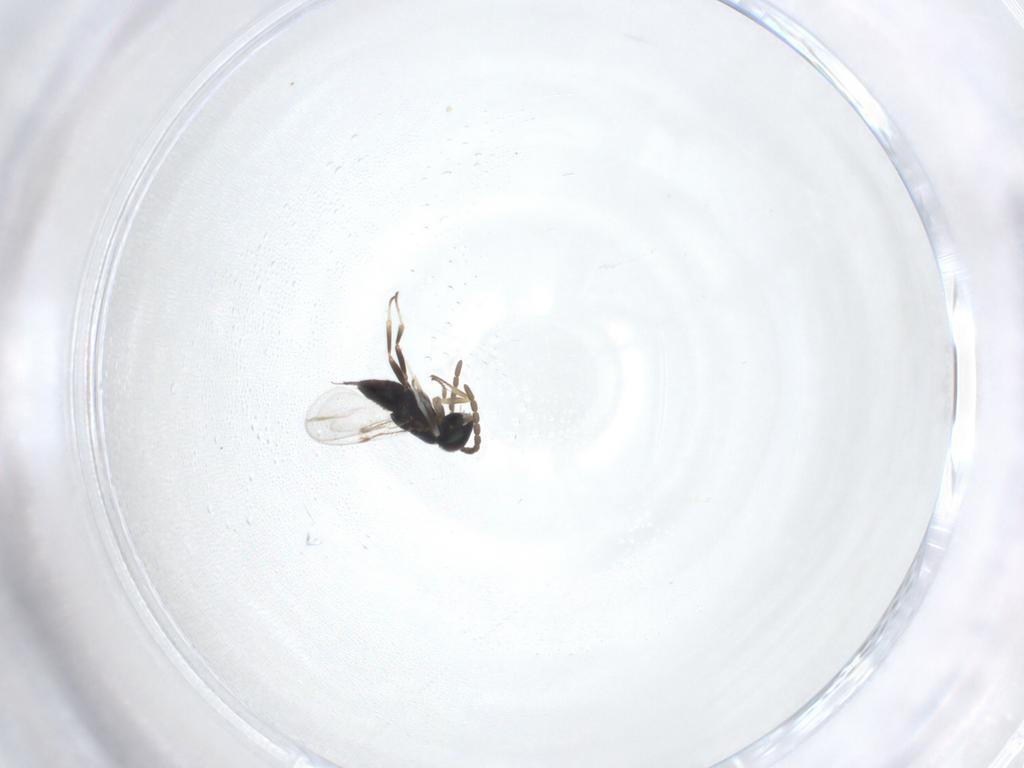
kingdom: Animalia
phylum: Arthropoda
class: Insecta
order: Hymenoptera
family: Encyrtidae
